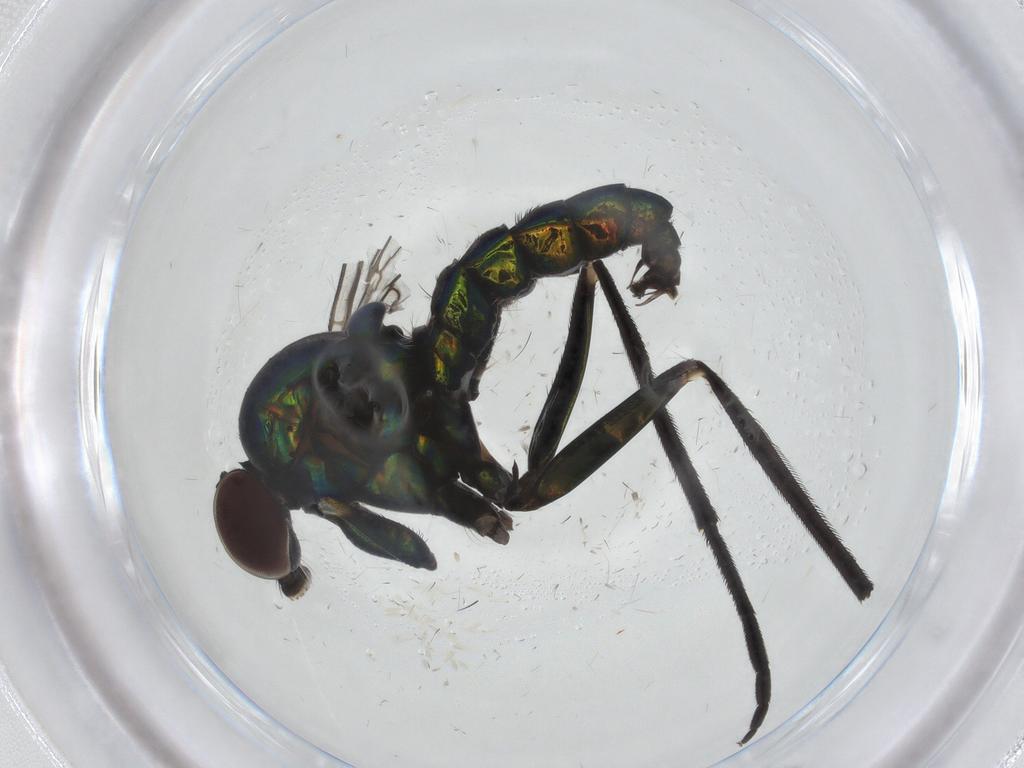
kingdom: Animalia
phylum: Arthropoda
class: Insecta
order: Diptera
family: Dolichopodidae
